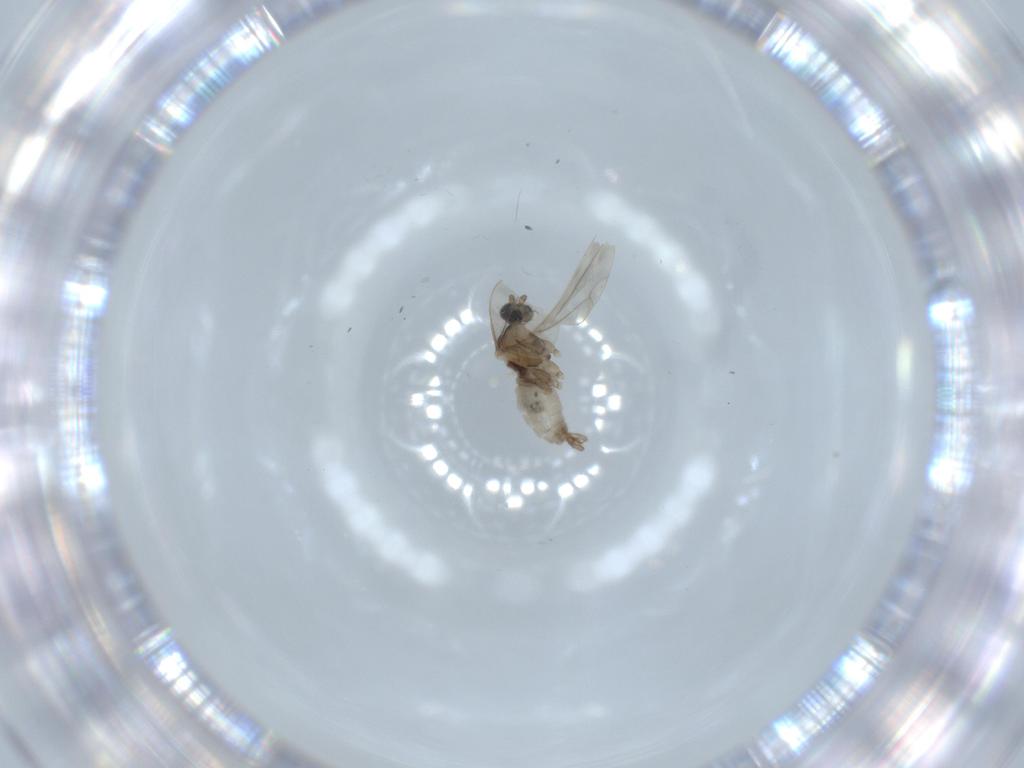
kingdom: Animalia
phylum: Arthropoda
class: Insecta
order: Diptera
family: Cecidomyiidae
